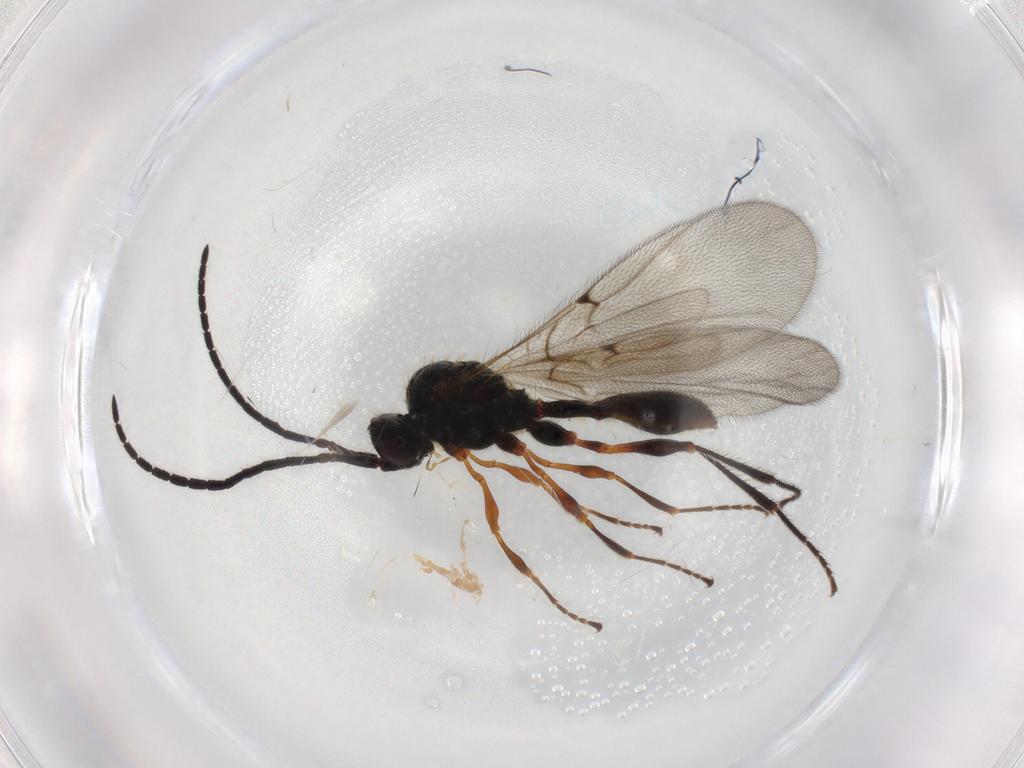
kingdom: Animalia
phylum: Arthropoda
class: Insecta
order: Hymenoptera
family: Diapriidae
